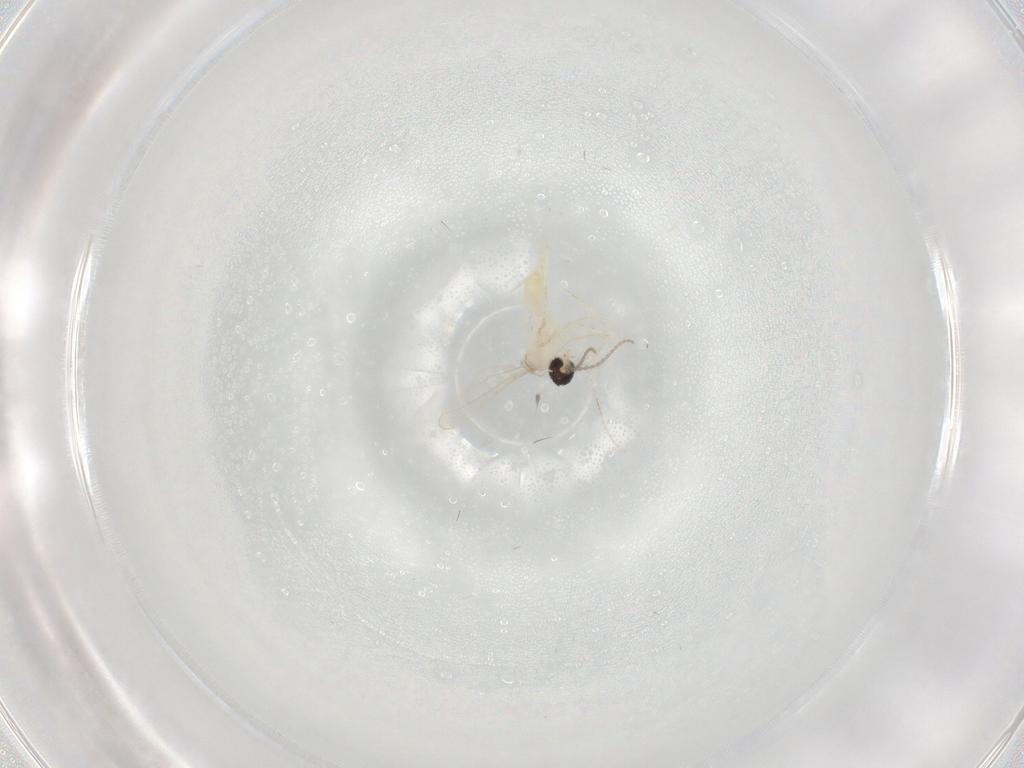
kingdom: Animalia
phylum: Arthropoda
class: Insecta
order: Diptera
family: Cecidomyiidae
